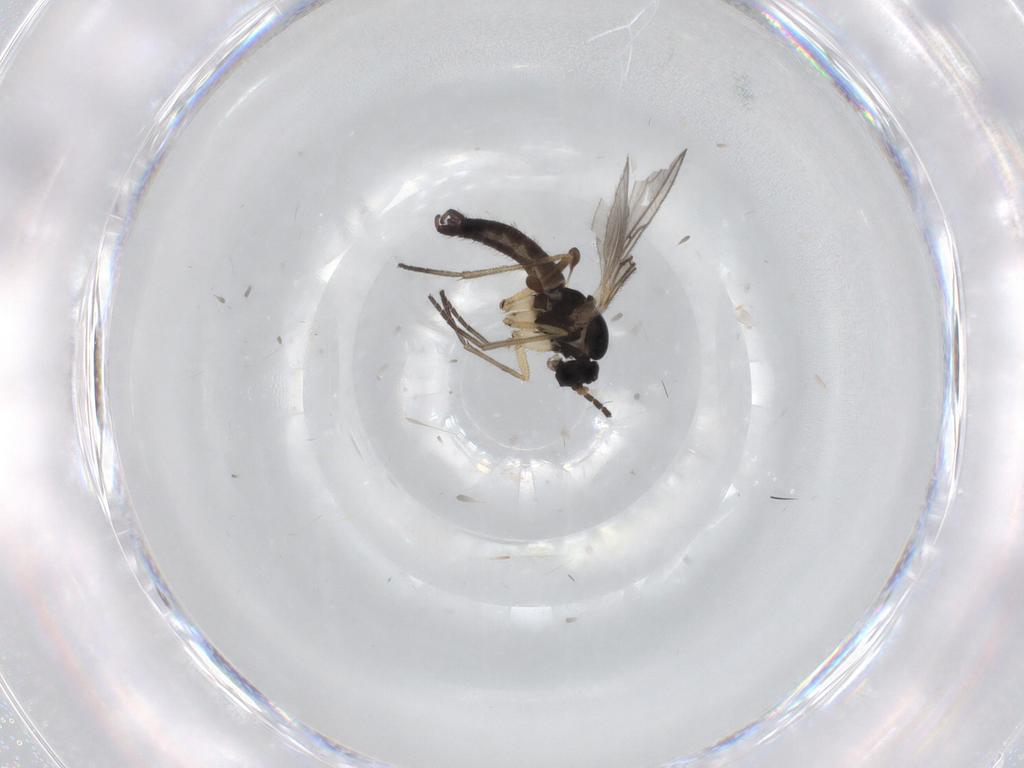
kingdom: Animalia
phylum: Arthropoda
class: Insecta
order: Diptera
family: Sciaridae
